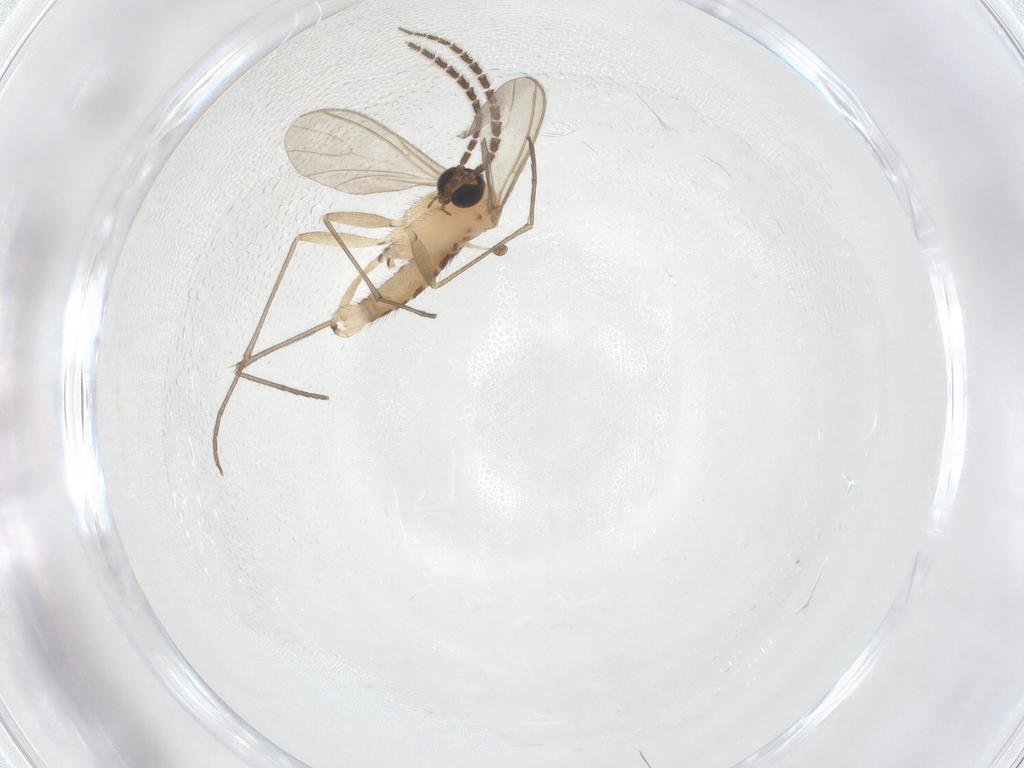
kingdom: Animalia
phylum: Arthropoda
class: Insecta
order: Diptera
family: Sciaridae
